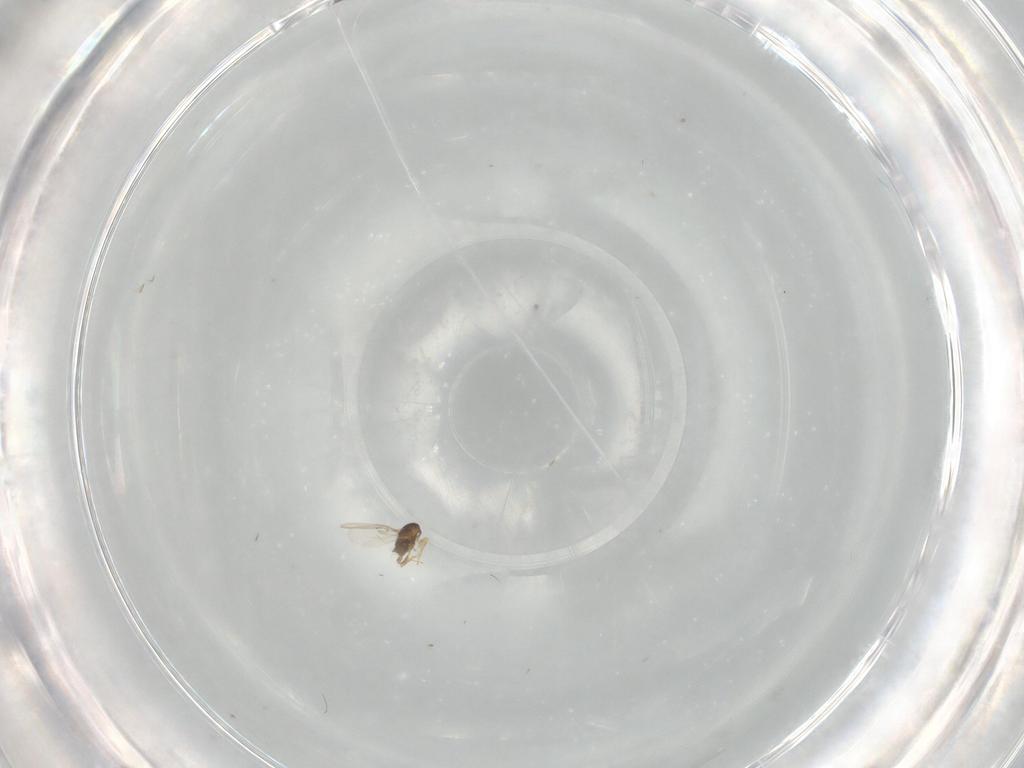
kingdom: Animalia
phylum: Arthropoda
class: Insecta
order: Hymenoptera
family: Encyrtidae
